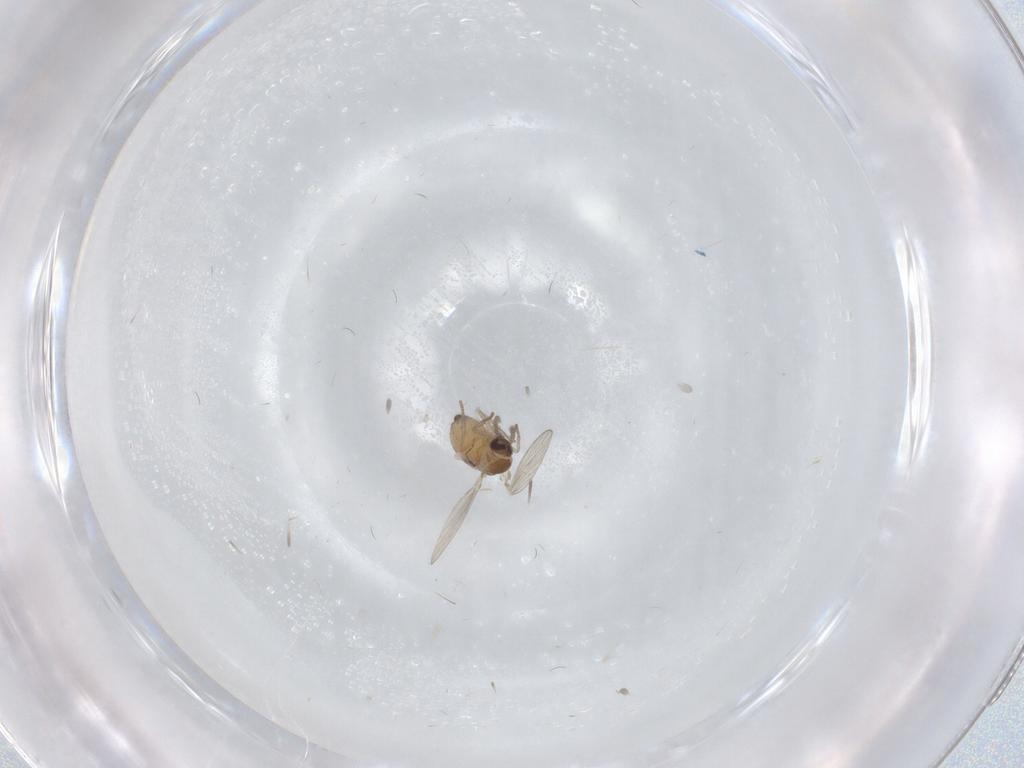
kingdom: Animalia
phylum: Arthropoda
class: Insecta
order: Diptera
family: Psychodidae
